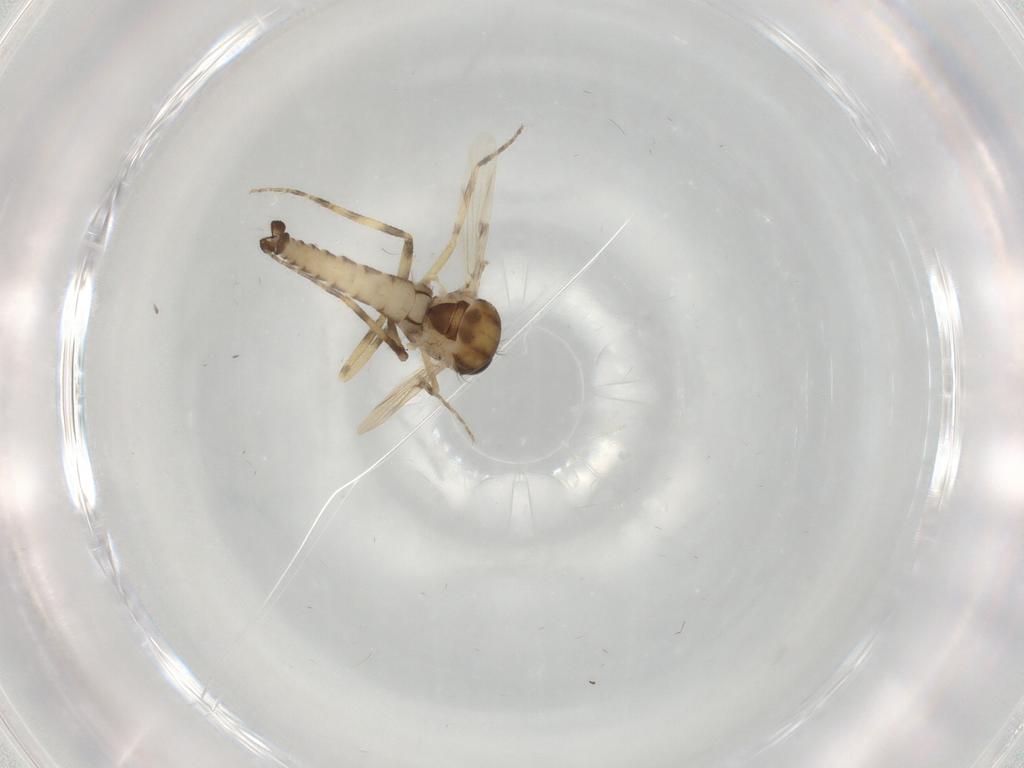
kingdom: Animalia
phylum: Arthropoda
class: Insecta
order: Diptera
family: Ceratopogonidae
